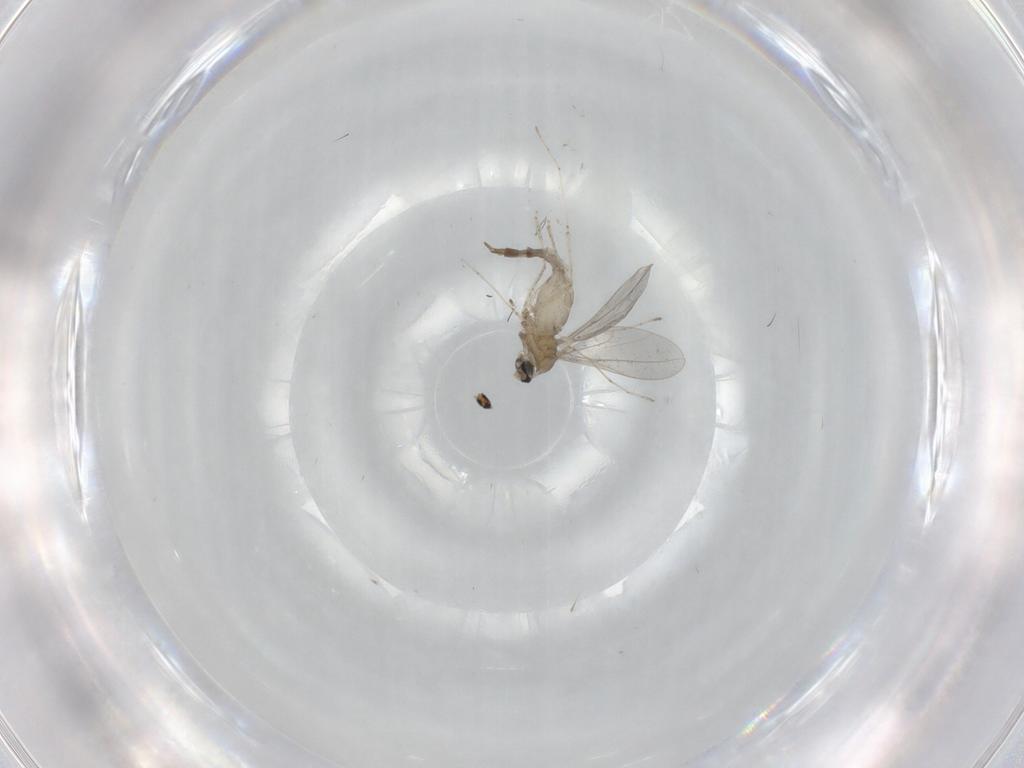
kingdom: Animalia
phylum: Arthropoda
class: Insecta
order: Diptera
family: Cecidomyiidae
